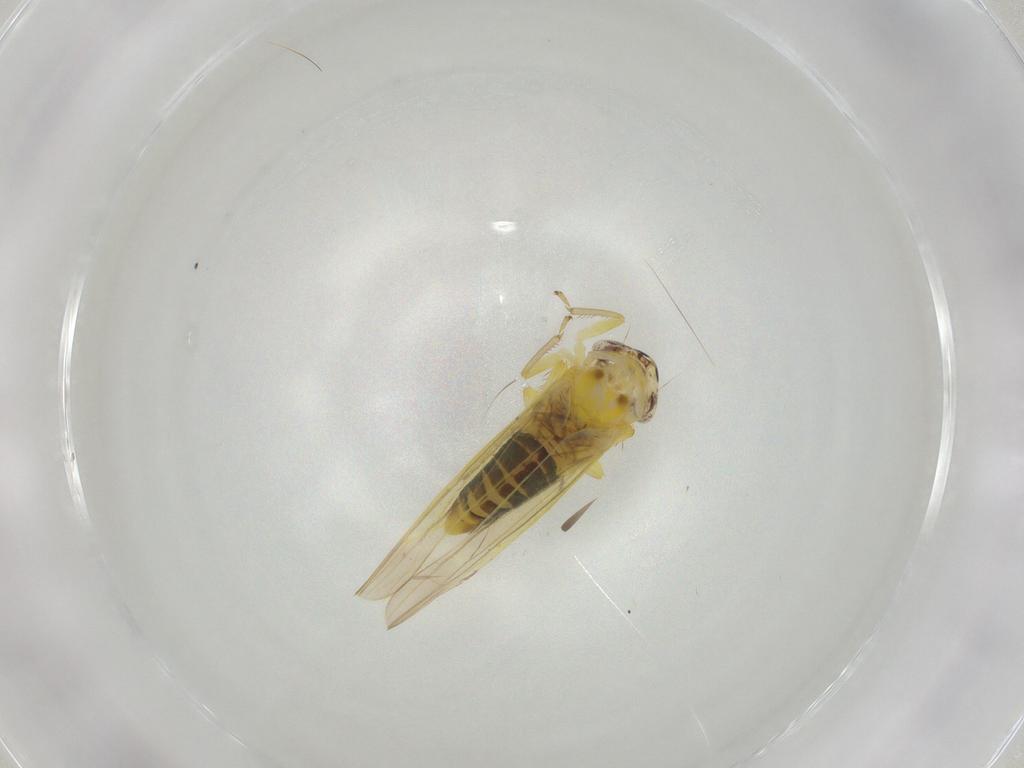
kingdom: Animalia
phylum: Arthropoda
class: Insecta
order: Hemiptera
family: Cicadellidae
